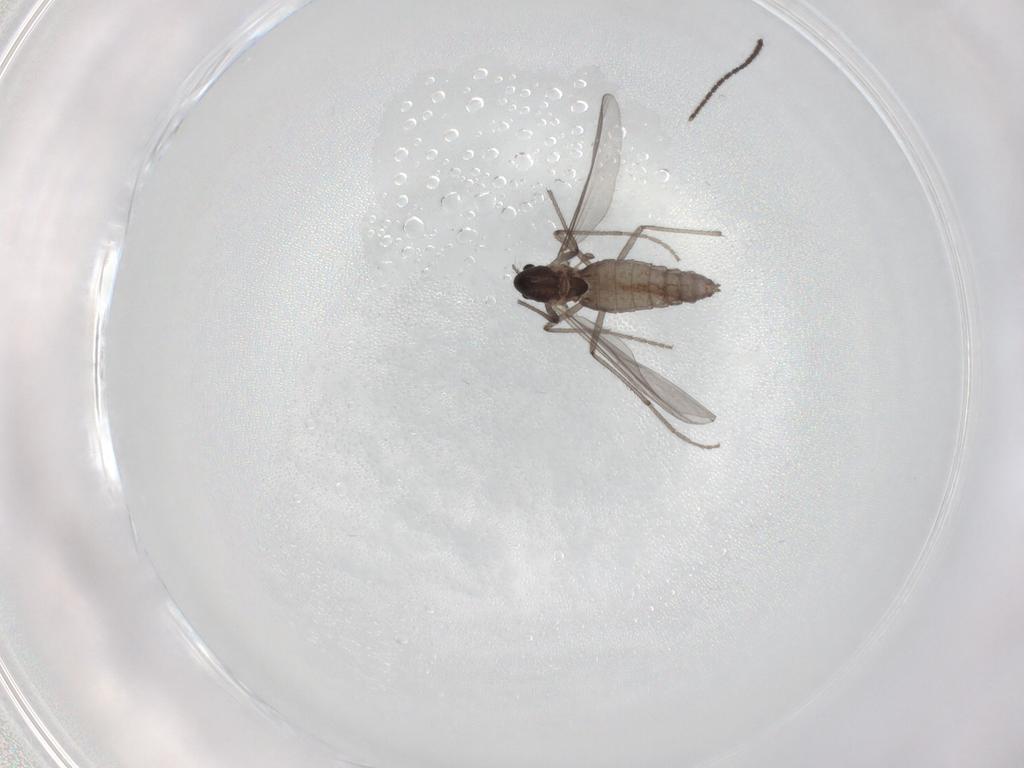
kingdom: Animalia
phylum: Arthropoda
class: Insecta
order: Diptera
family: Chironomidae
